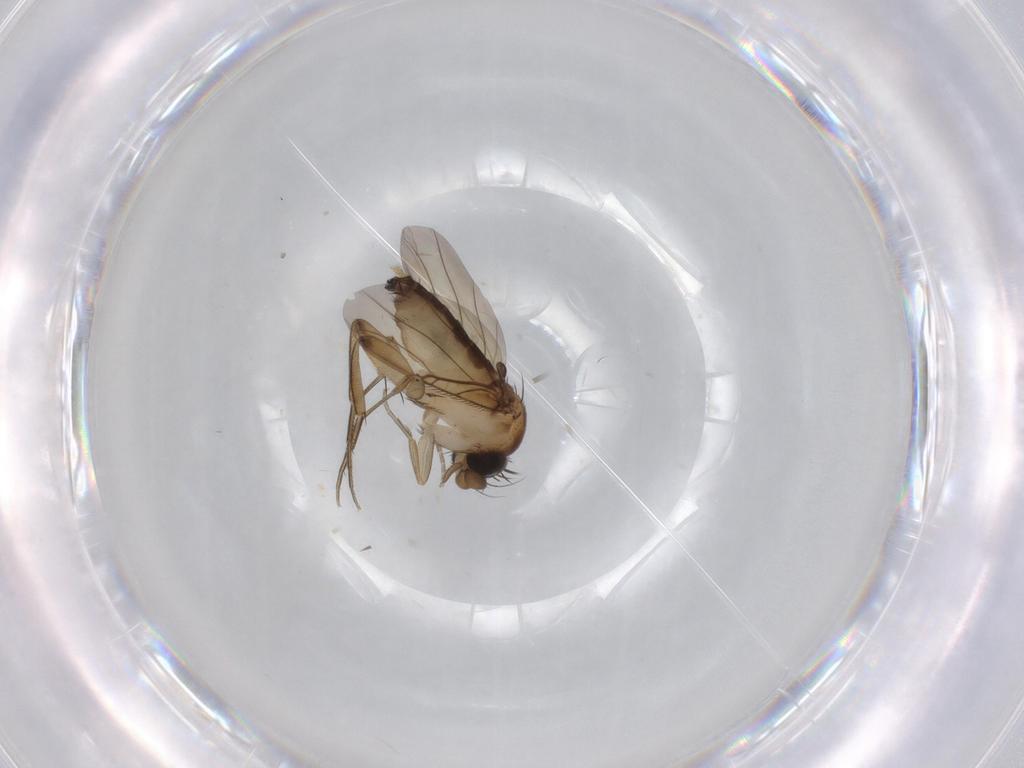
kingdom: Animalia
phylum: Arthropoda
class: Insecta
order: Diptera
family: Phoridae
